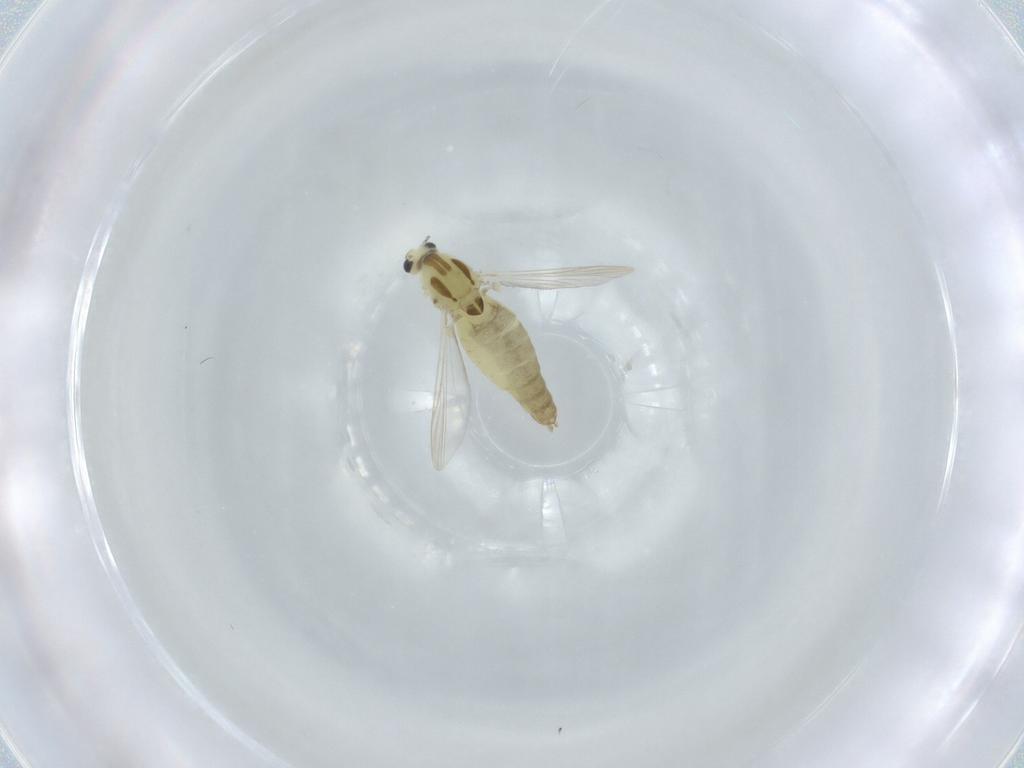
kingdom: Animalia
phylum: Arthropoda
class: Insecta
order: Diptera
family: Chironomidae
